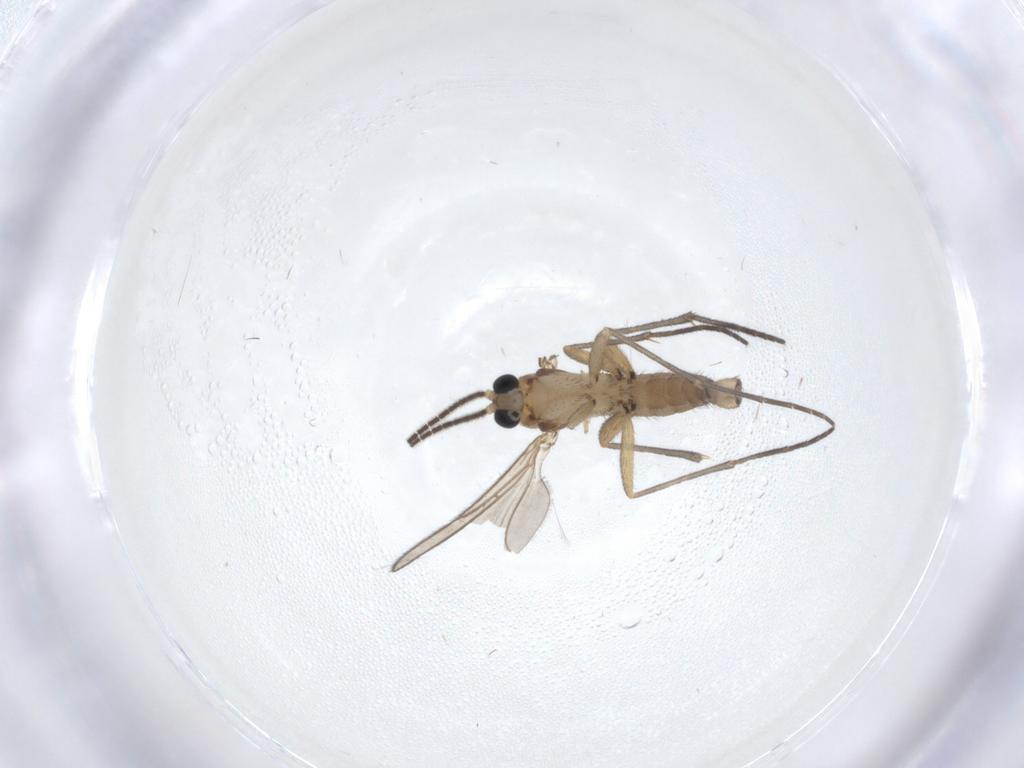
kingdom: Animalia
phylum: Arthropoda
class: Insecta
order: Diptera
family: Sciaridae
